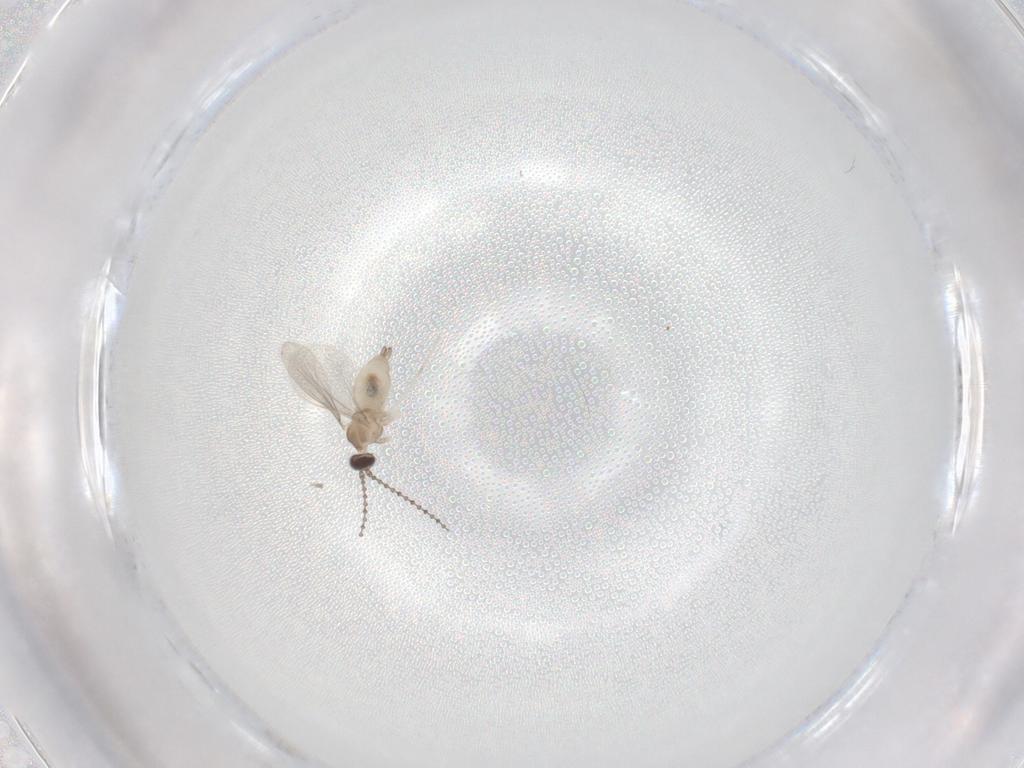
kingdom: Animalia
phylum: Arthropoda
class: Insecta
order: Diptera
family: Cecidomyiidae
